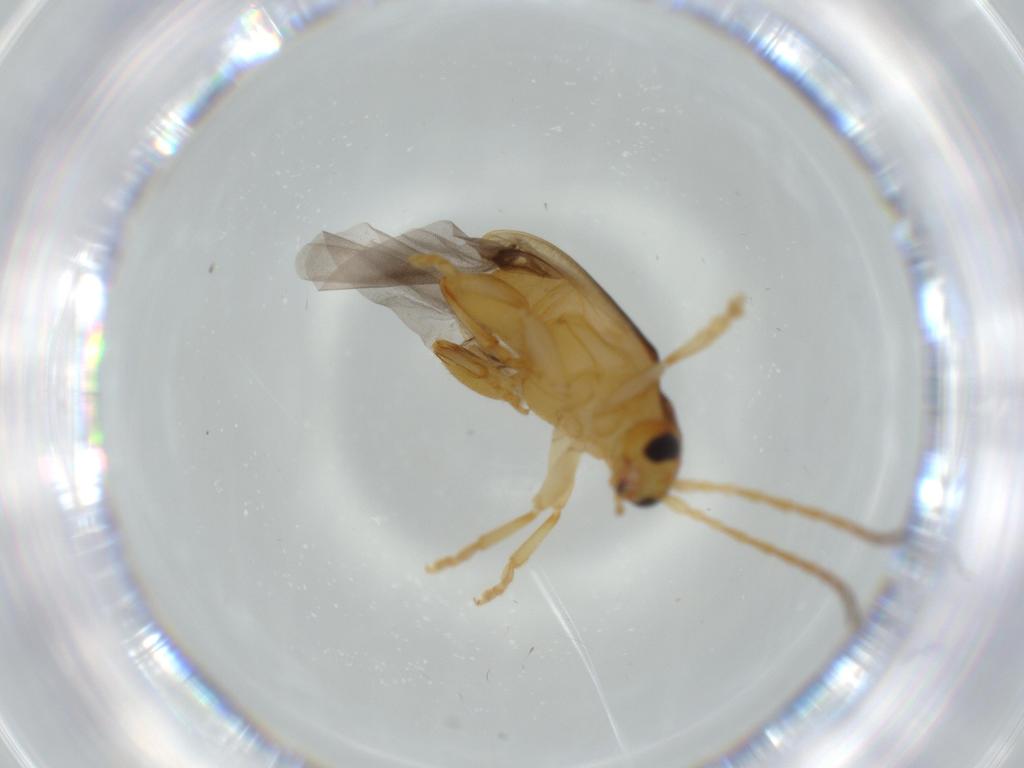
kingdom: Animalia
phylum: Arthropoda
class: Insecta
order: Coleoptera
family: Chrysomelidae
